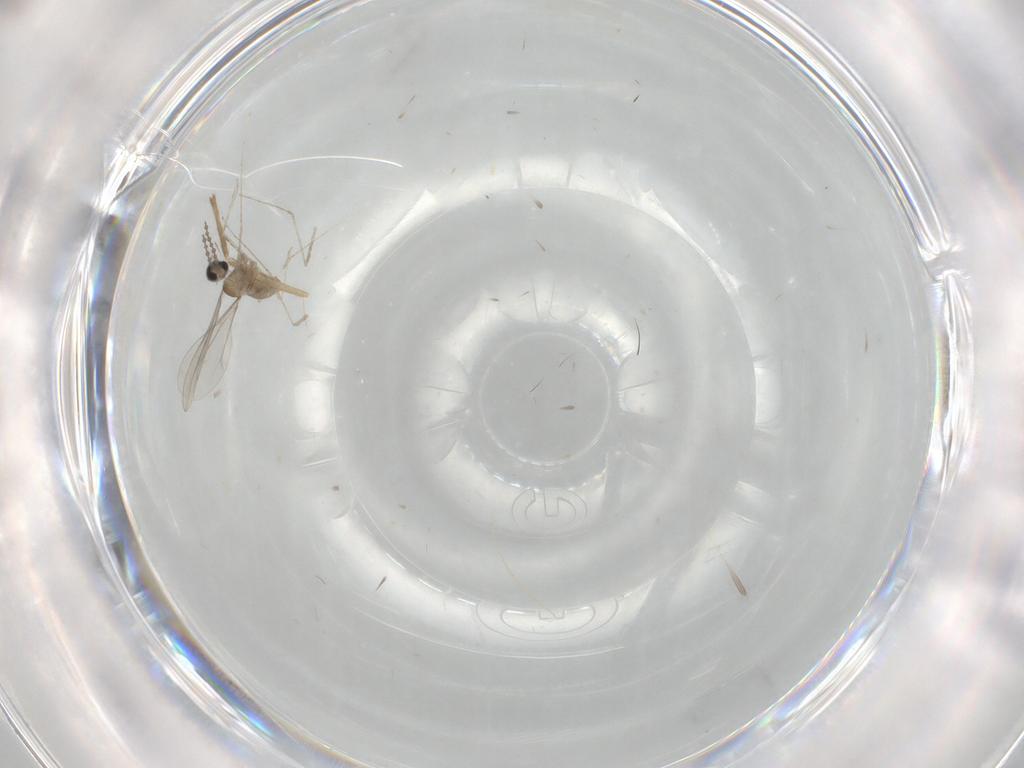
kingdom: Animalia
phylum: Arthropoda
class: Insecta
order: Diptera
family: Chironomidae
